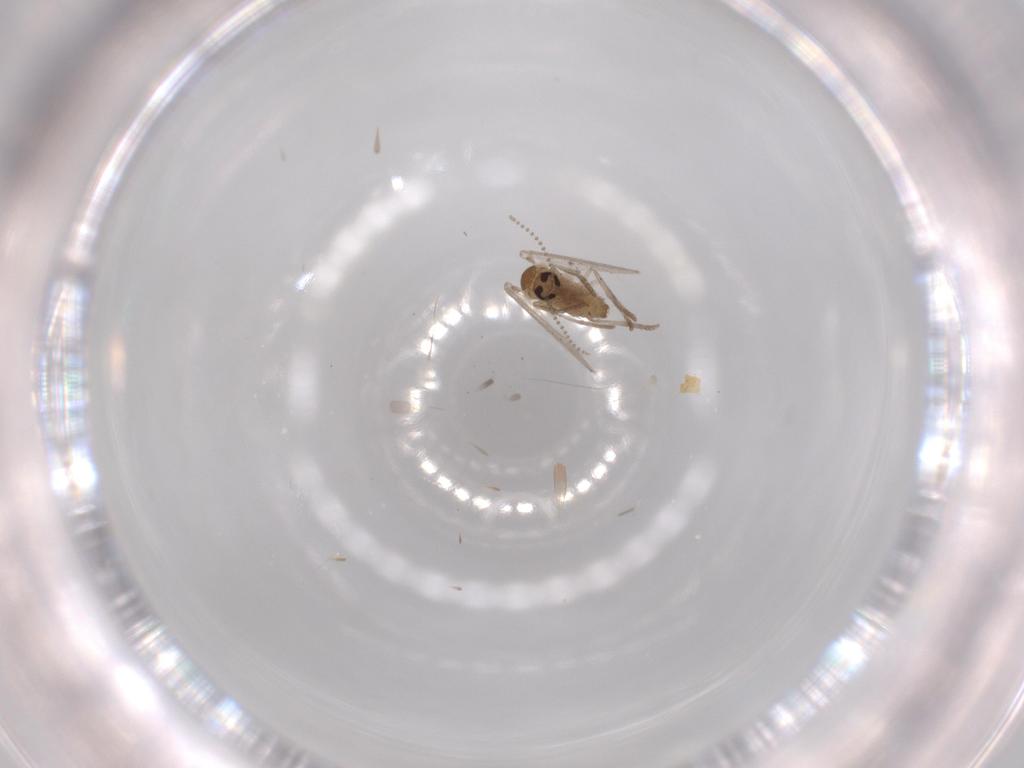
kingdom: Animalia
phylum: Arthropoda
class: Insecta
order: Diptera
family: Psychodidae
